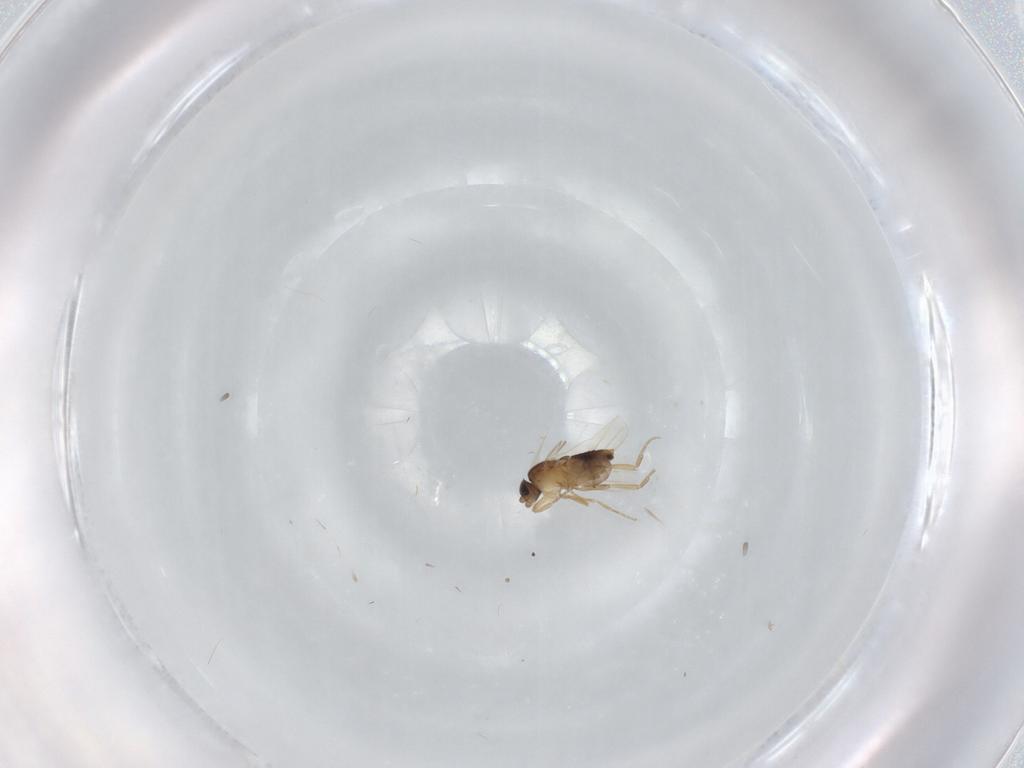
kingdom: Animalia
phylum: Arthropoda
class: Insecta
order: Diptera
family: Phoridae
